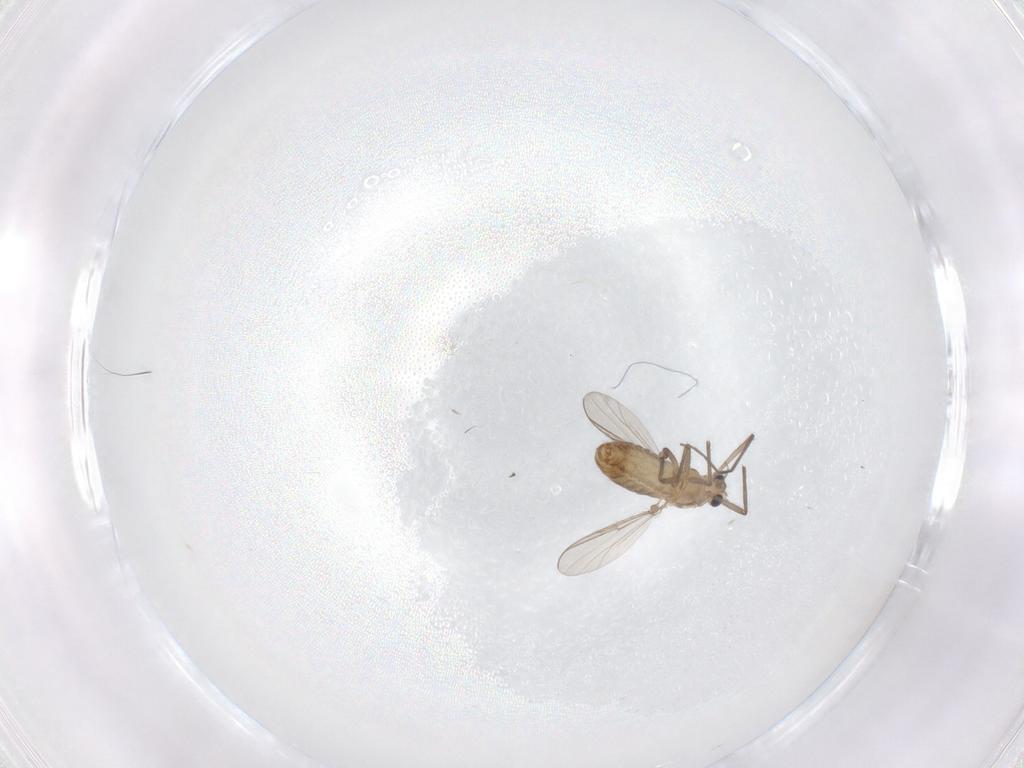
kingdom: Animalia
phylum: Arthropoda
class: Insecta
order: Diptera
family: Chironomidae
